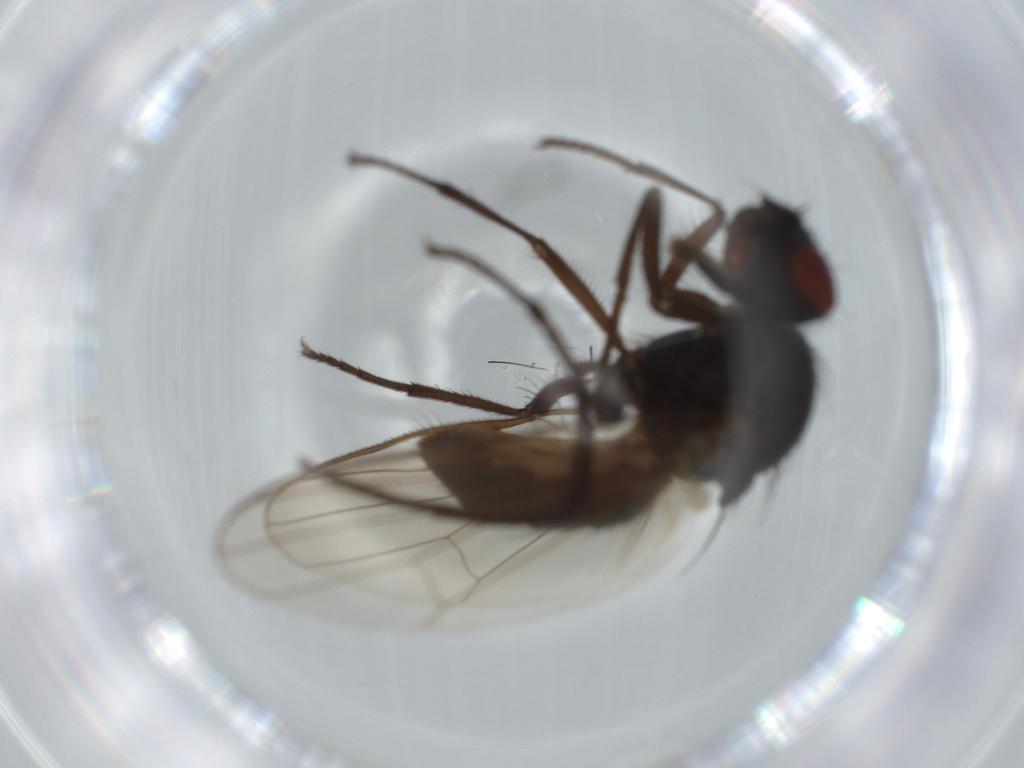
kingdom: Animalia
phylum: Arthropoda
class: Insecta
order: Diptera
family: Anthomyiidae
